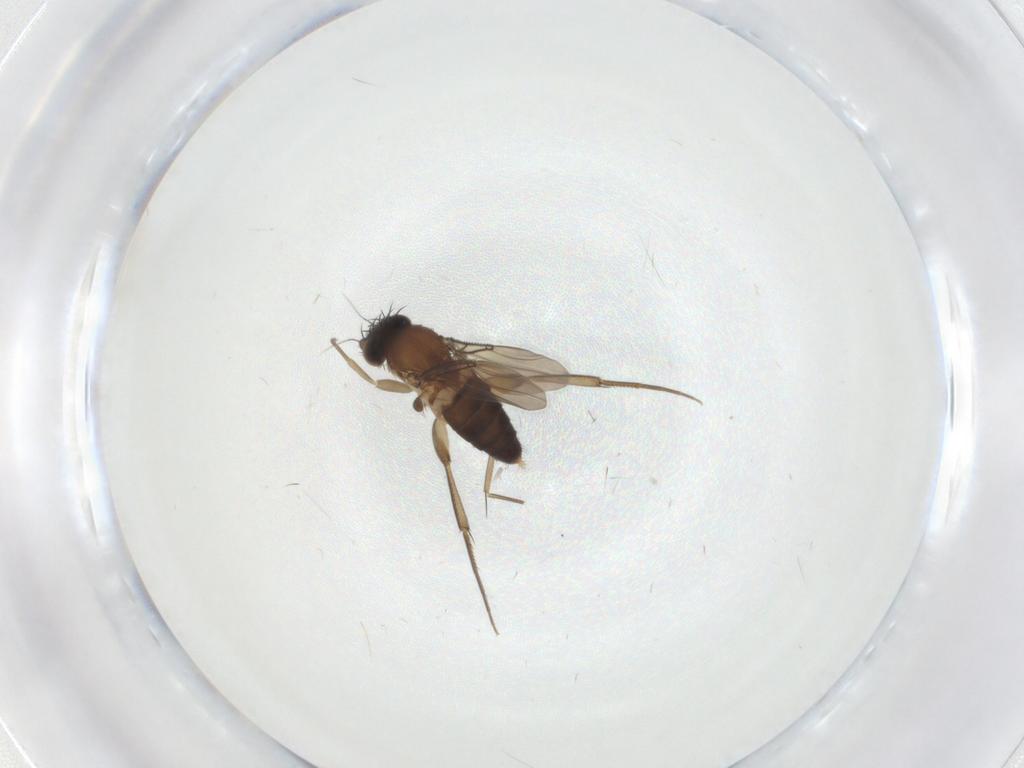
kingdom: Animalia
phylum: Arthropoda
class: Insecta
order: Diptera
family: Phoridae
